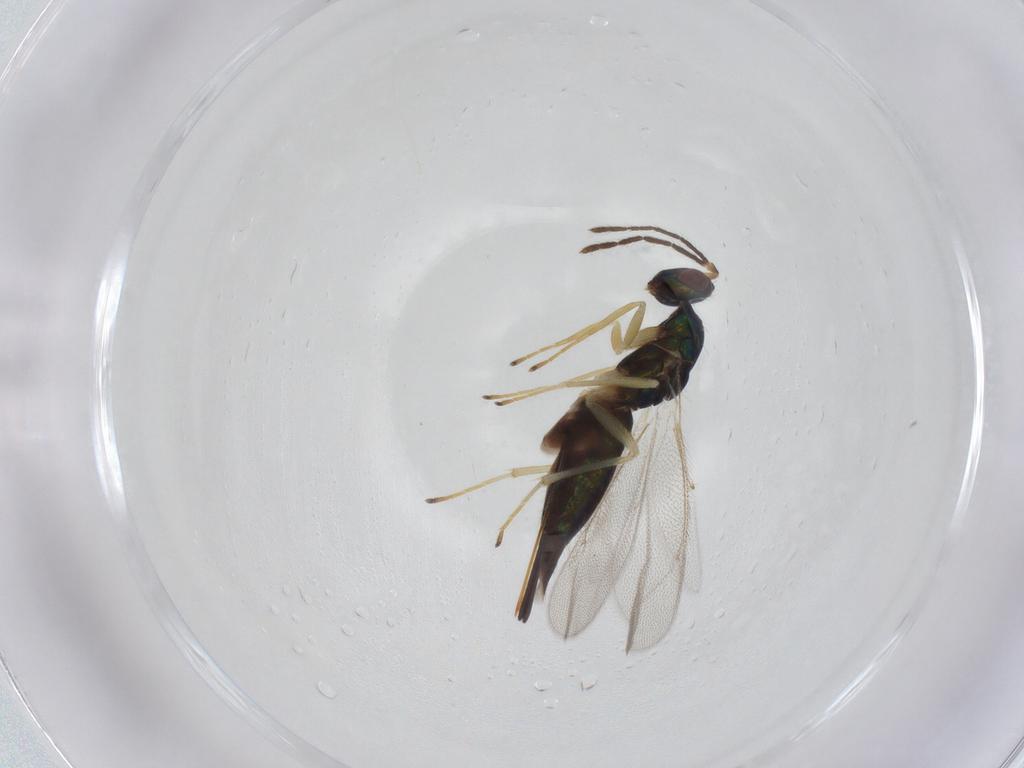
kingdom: Animalia
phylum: Arthropoda
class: Insecta
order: Hymenoptera
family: Eulophidae
